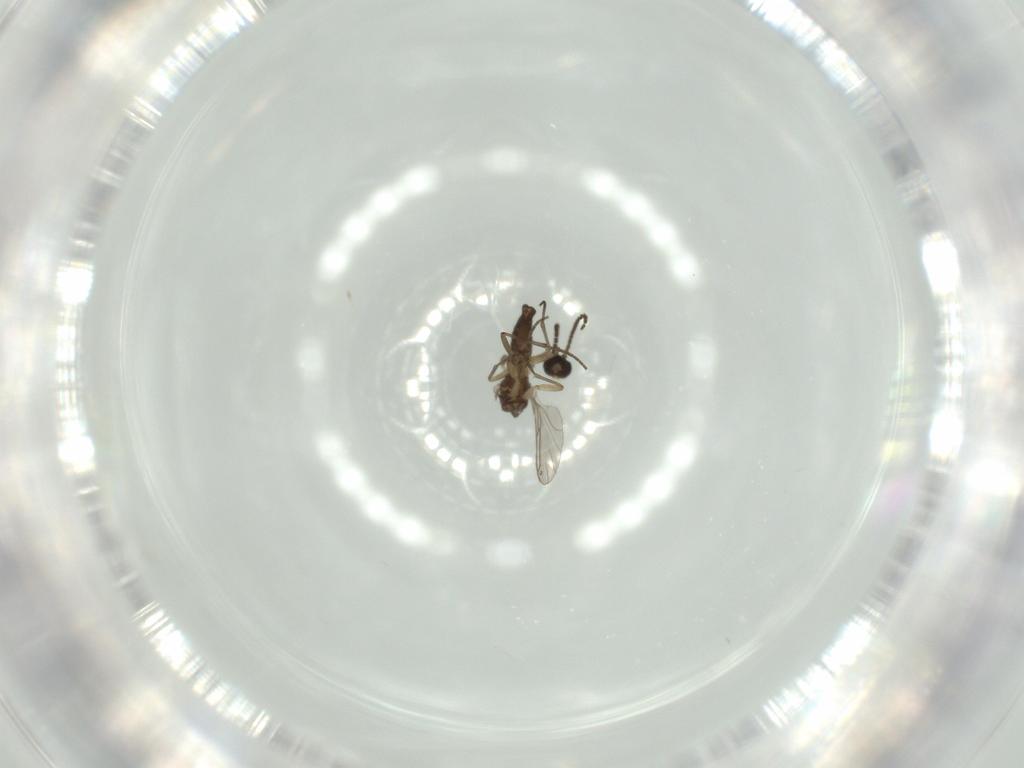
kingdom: Animalia
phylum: Arthropoda
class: Insecta
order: Diptera
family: Sciaridae
